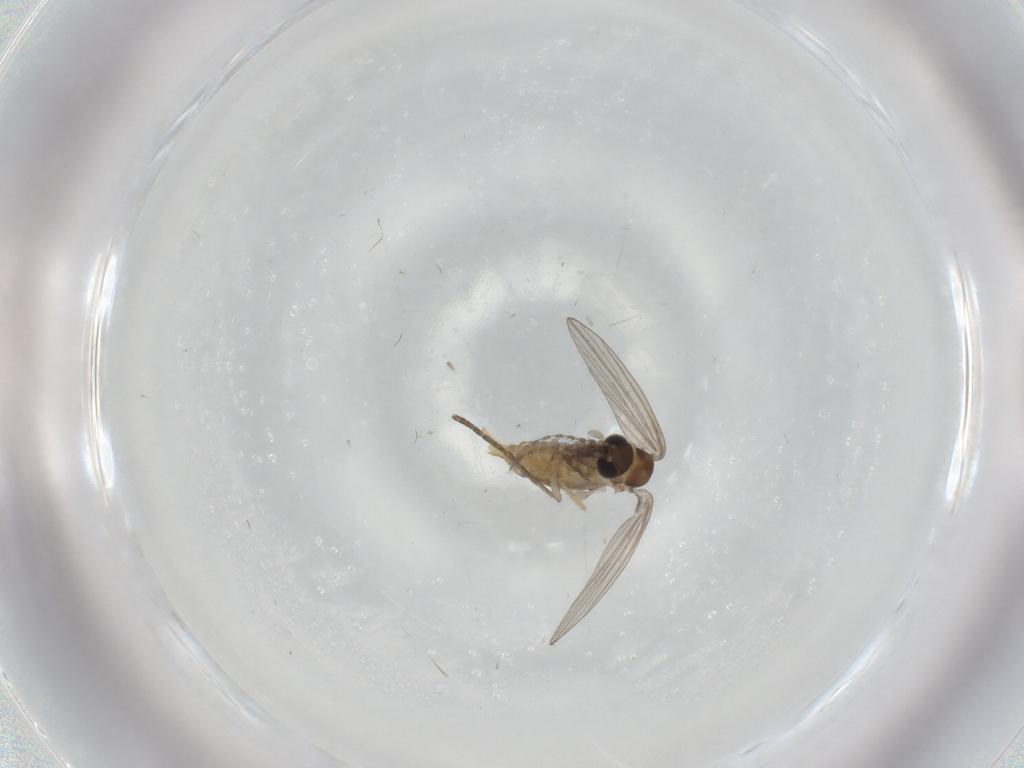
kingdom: Animalia
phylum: Arthropoda
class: Insecta
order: Diptera
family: Psychodidae
